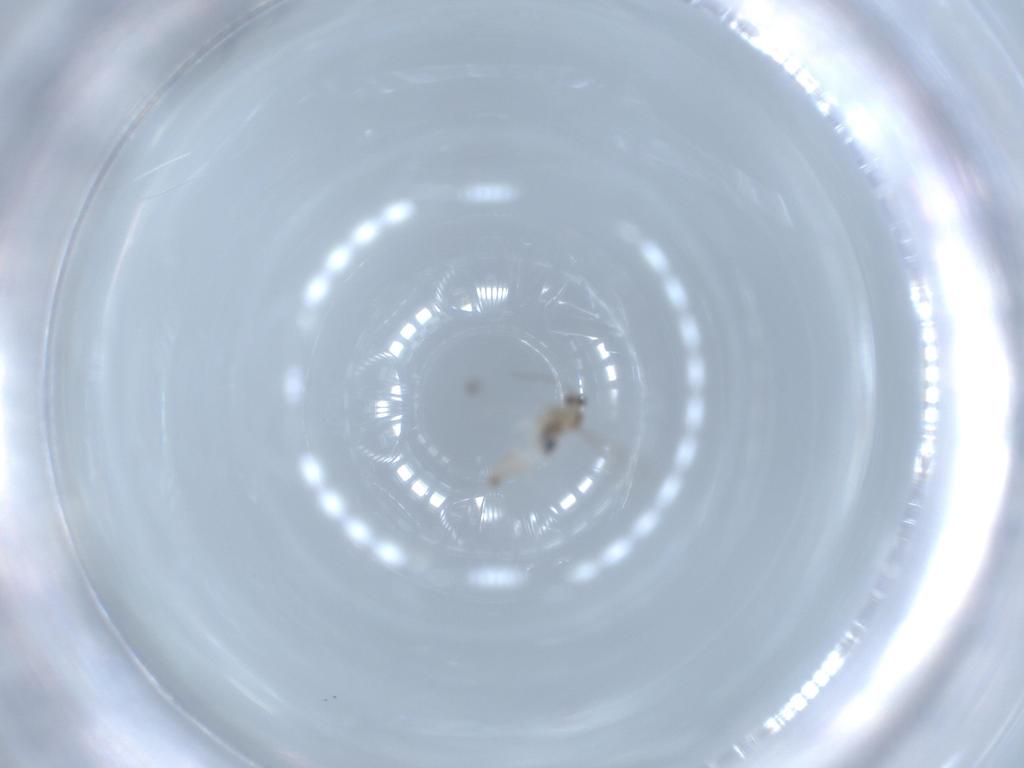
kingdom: Animalia
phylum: Arthropoda
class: Insecta
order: Diptera
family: Cecidomyiidae
